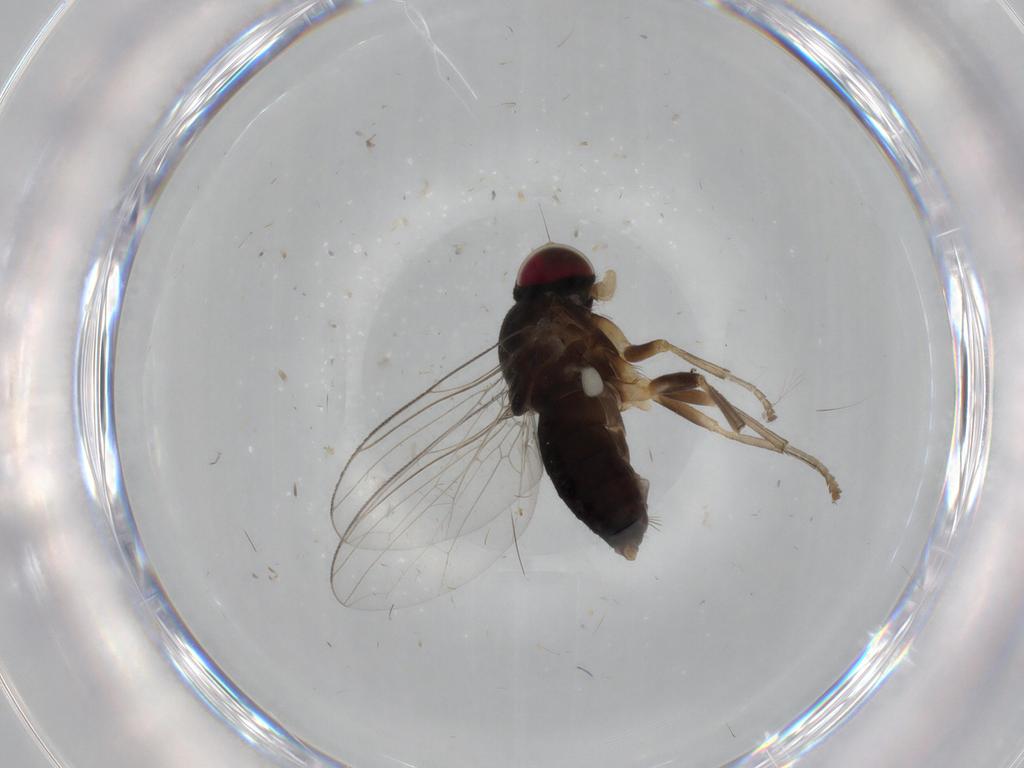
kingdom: Animalia
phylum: Arthropoda
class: Insecta
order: Diptera
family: Platypezidae
